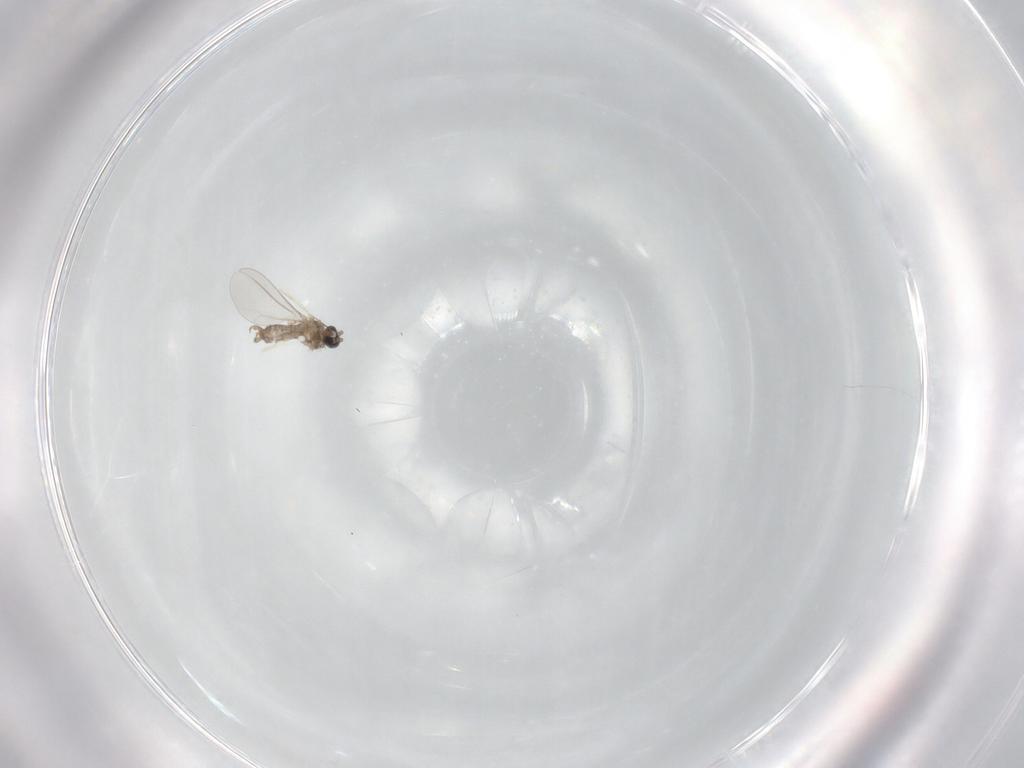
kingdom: Animalia
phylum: Arthropoda
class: Insecta
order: Diptera
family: Cecidomyiidae
